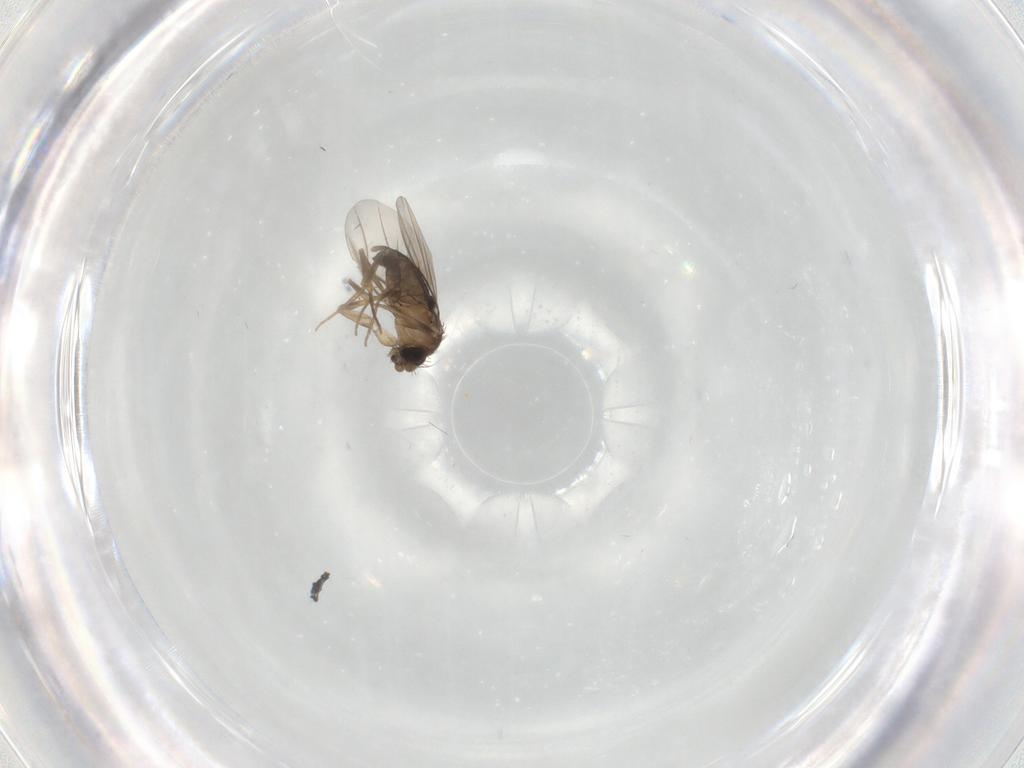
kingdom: Animalia
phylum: Arthropoda
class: Insecta
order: Diptera
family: Phoridae
